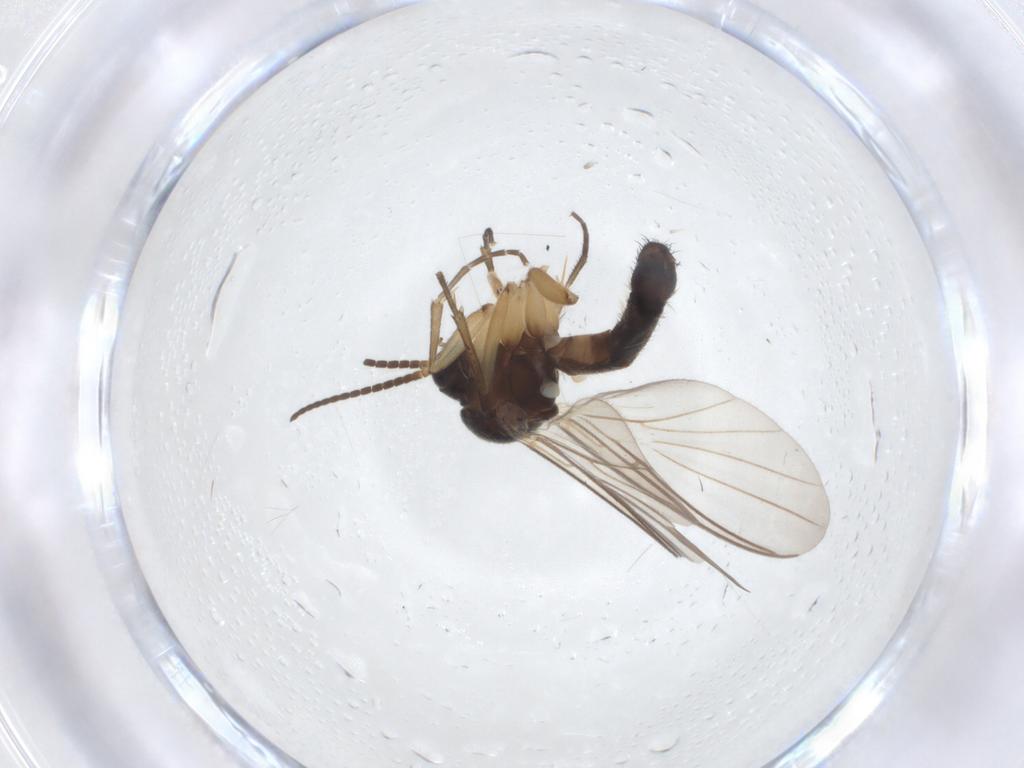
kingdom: Animalia
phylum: Arthropoda
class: Insecta
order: Diptera
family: Mycetophilidae
